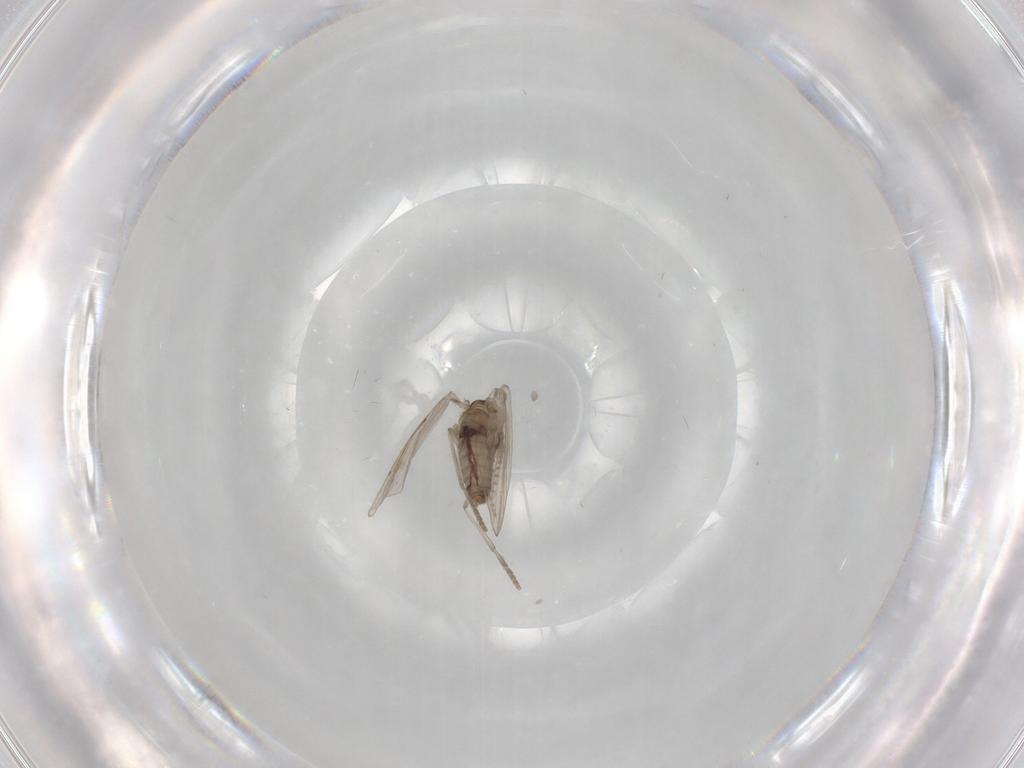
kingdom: Animalia
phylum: Arthropoda
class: Insecta
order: Diptera
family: Psychodidae
